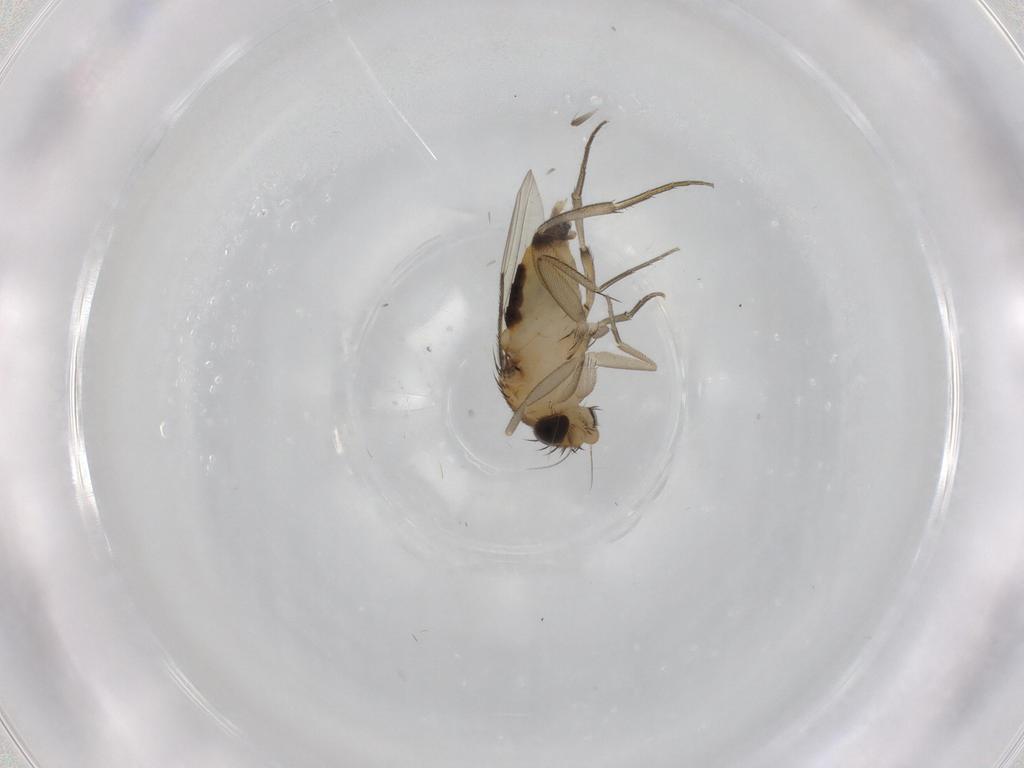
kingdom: Animalia
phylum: Arthropoda
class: Insecta
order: Diptera
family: Phoridae
